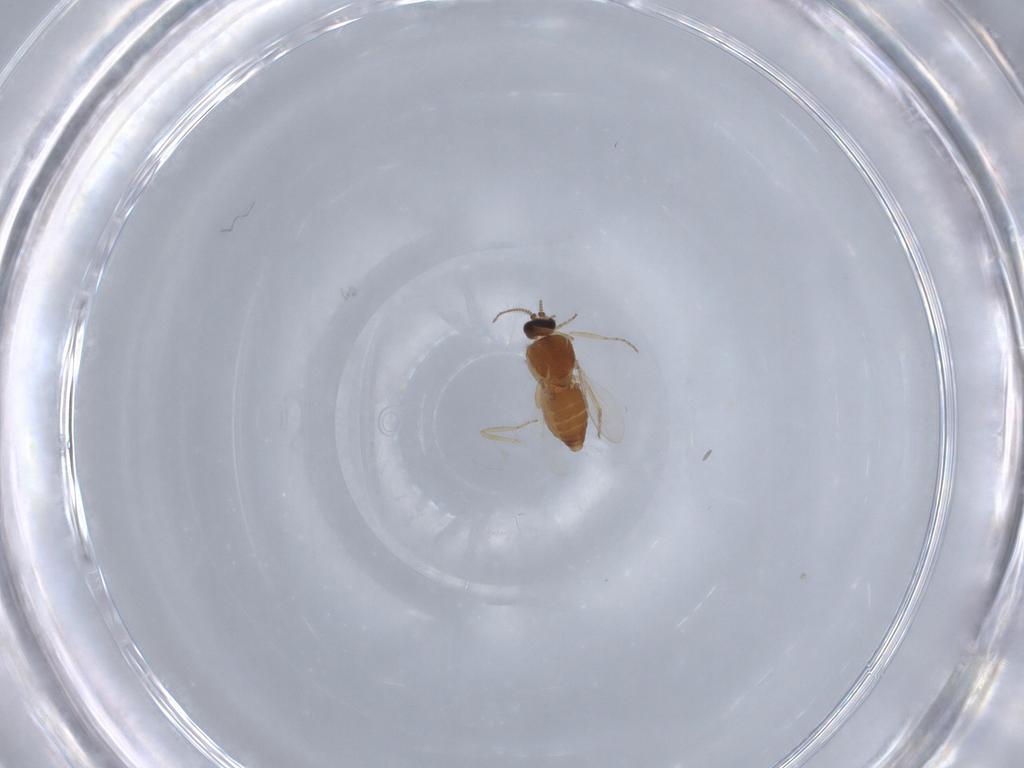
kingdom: Animalia
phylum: Arthropoda
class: Insecta
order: Diptera
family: Ceratopogonidae
